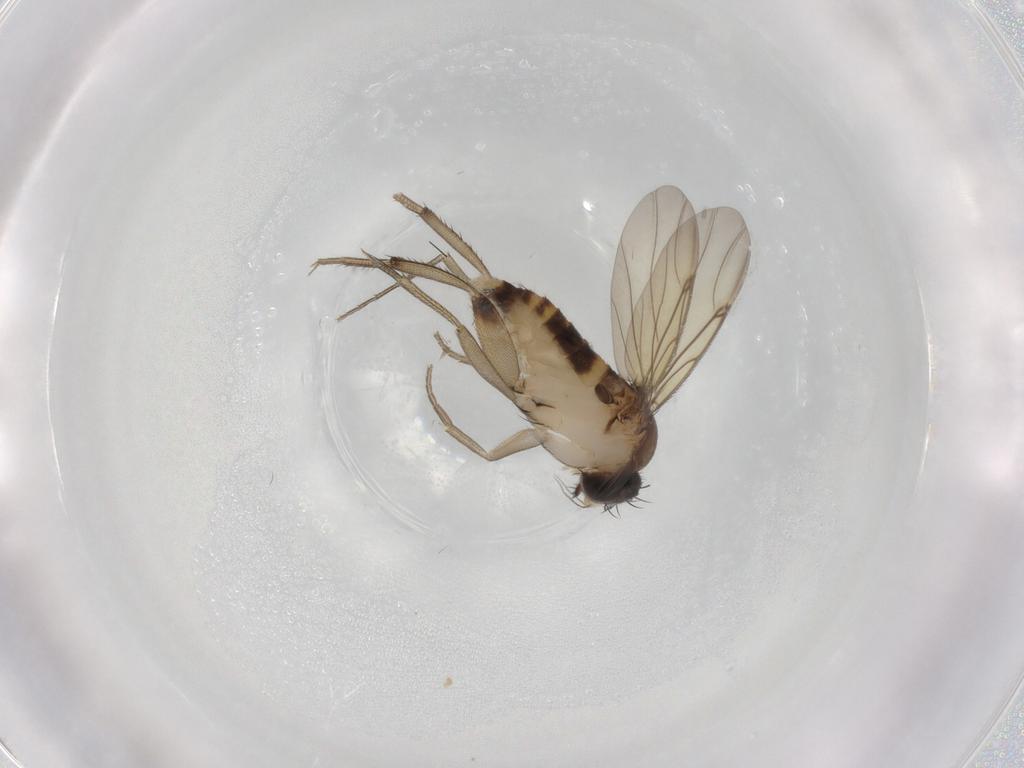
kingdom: Animalia
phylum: Arthropoda
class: Insecta
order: Diptera
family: Phoridae
